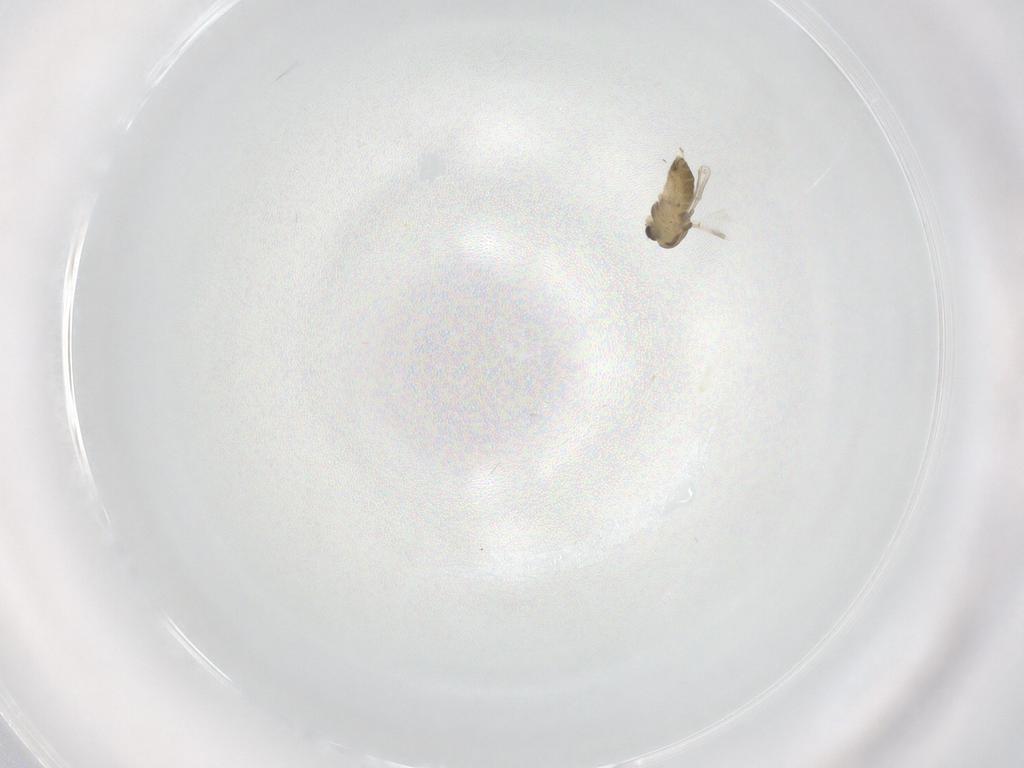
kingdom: Animalia
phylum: Arthropoda
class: Insecta
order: Diptera
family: Chironomidae
